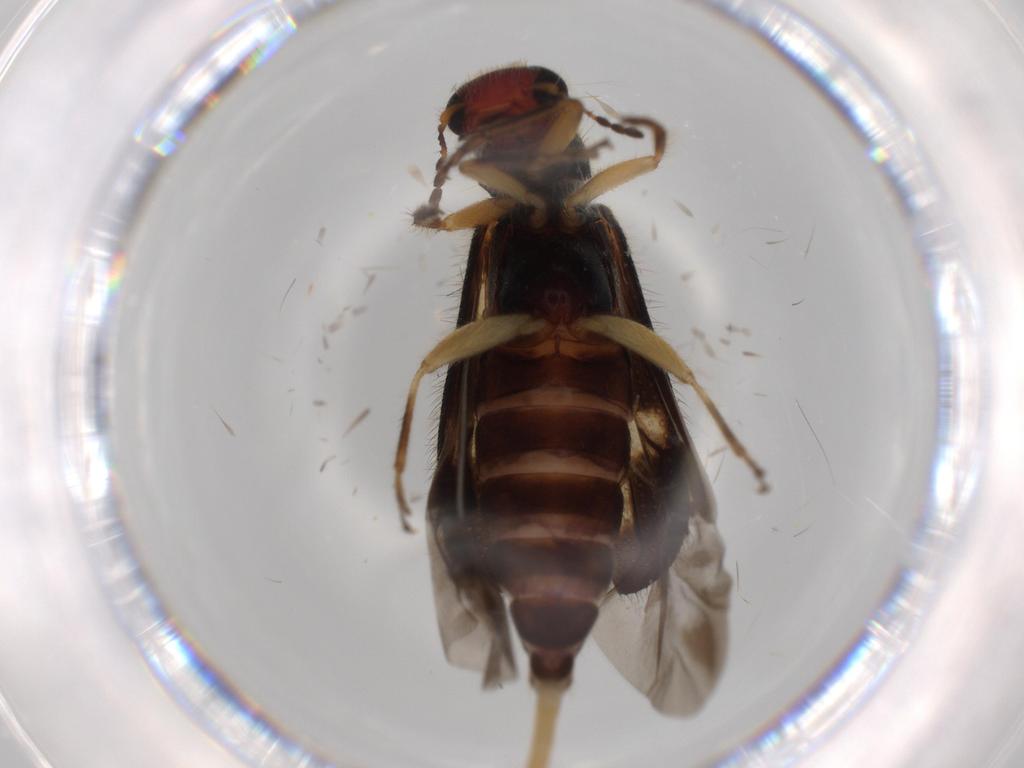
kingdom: Animalia
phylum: Arthropoda
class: Insecta
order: Coleoptera
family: Cleridae
